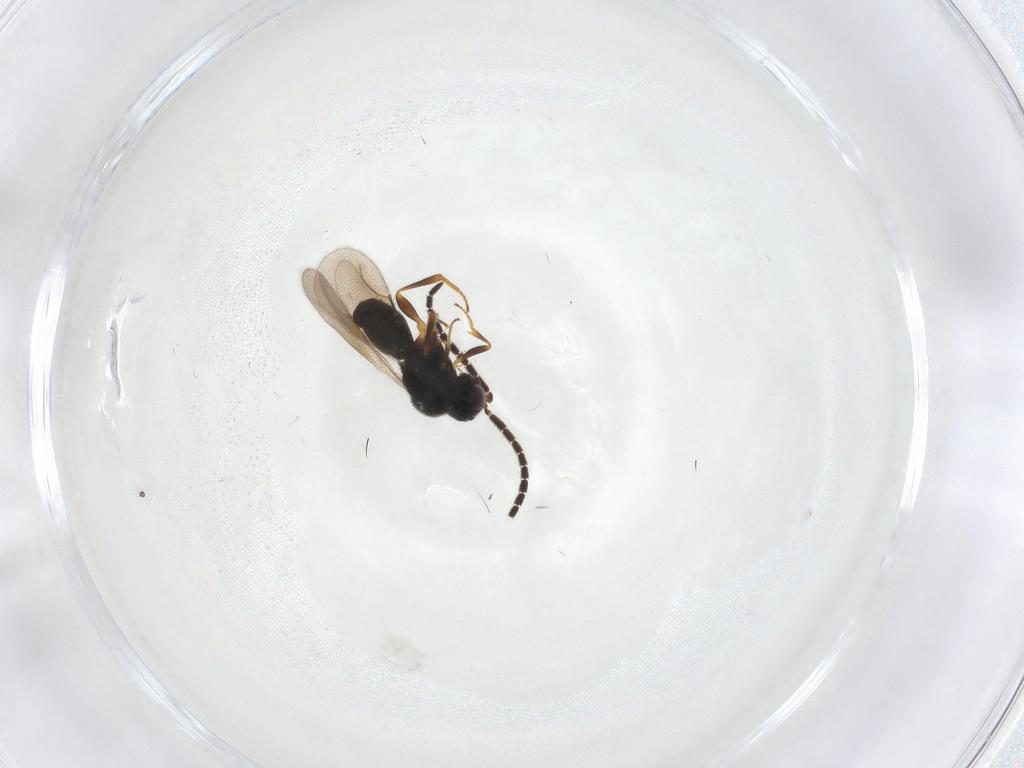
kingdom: Animalia
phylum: Arthropoda
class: Insecta
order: Hymenoptera
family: Ceraphronidae
